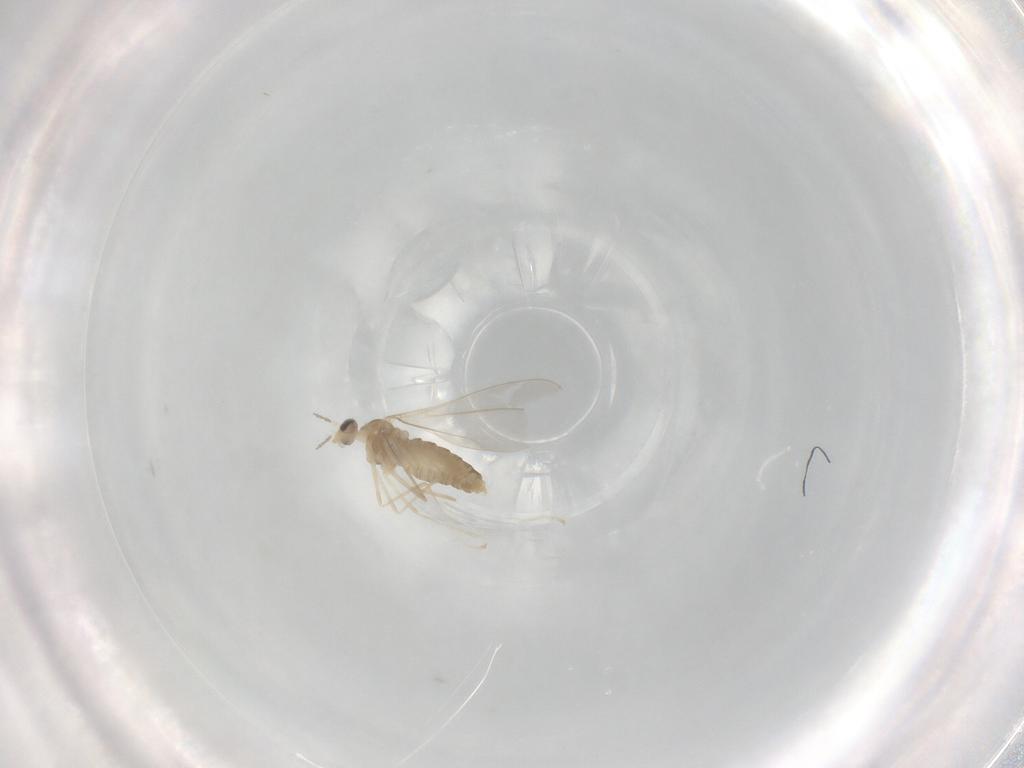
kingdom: Animalia
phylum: Arthropoda
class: Insecta
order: Diptera
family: Cecidomyiidae
